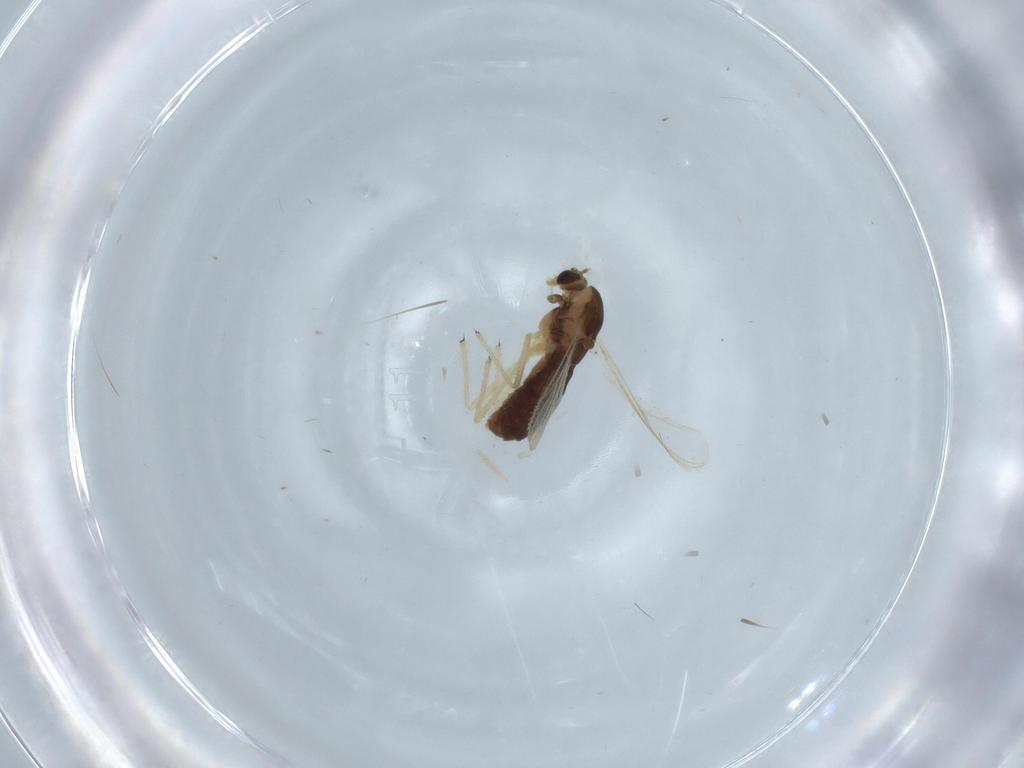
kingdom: Animalia
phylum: Arthropoda
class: Insecta
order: Diptera
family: Chironomidae
